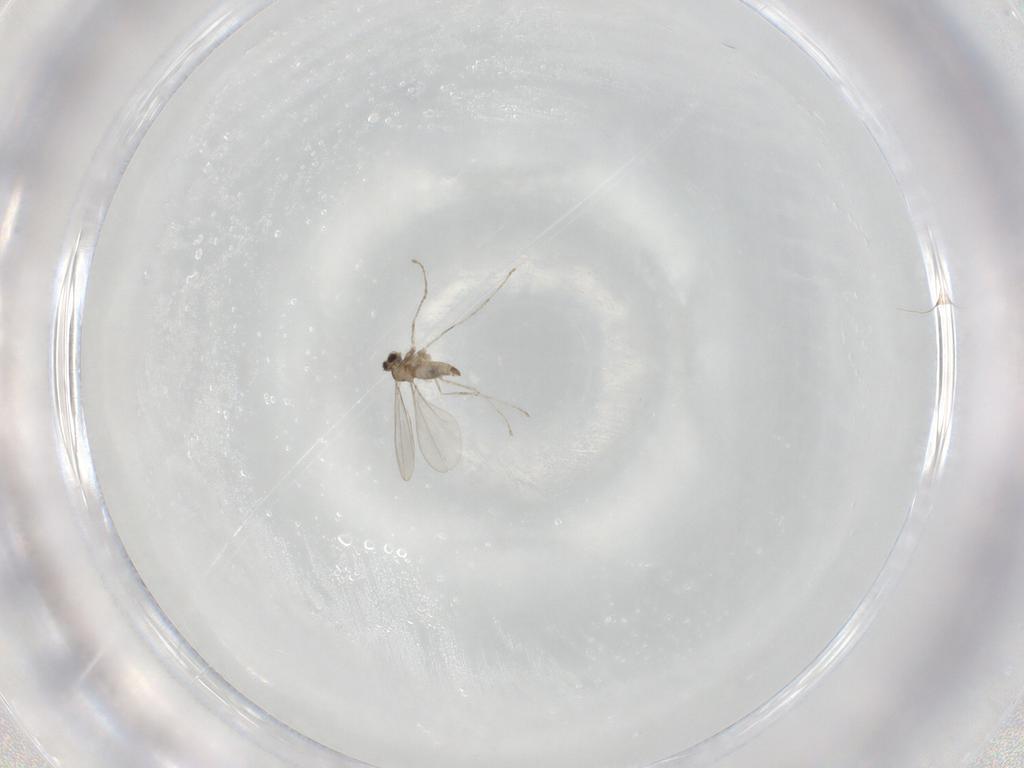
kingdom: Animalia
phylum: Arthropoda
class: Insecta
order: Diptera
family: Cecidomyiidae
